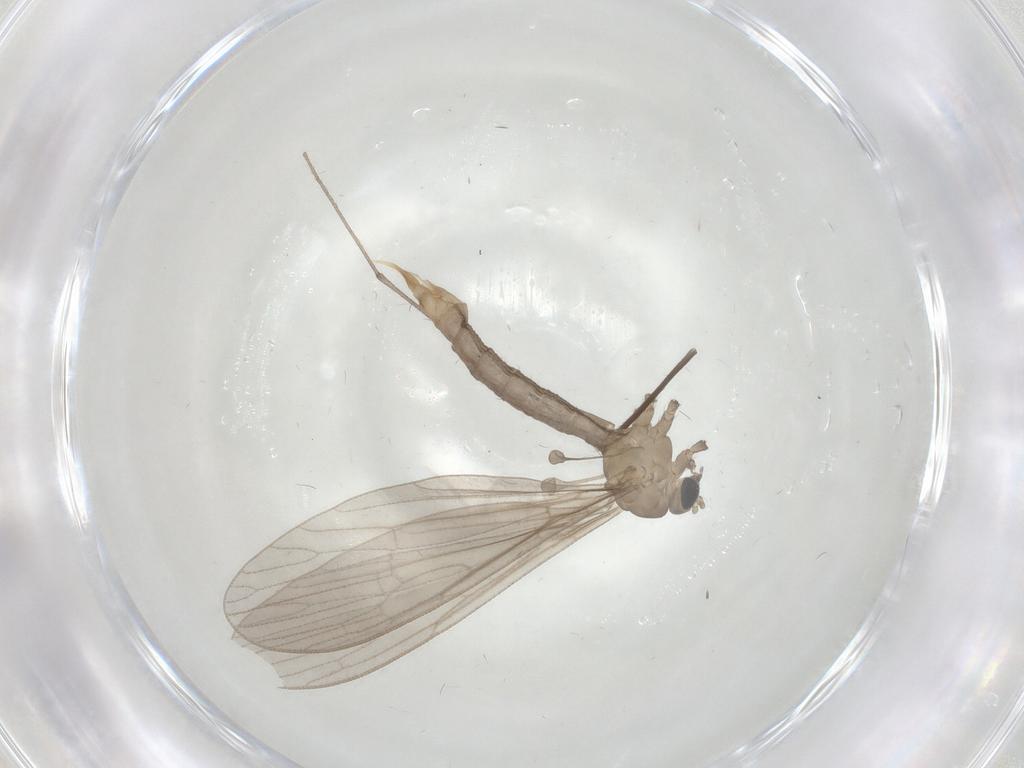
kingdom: Animalia
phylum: Arthropoda
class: Insecta
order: Diptera
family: Limoniidae
